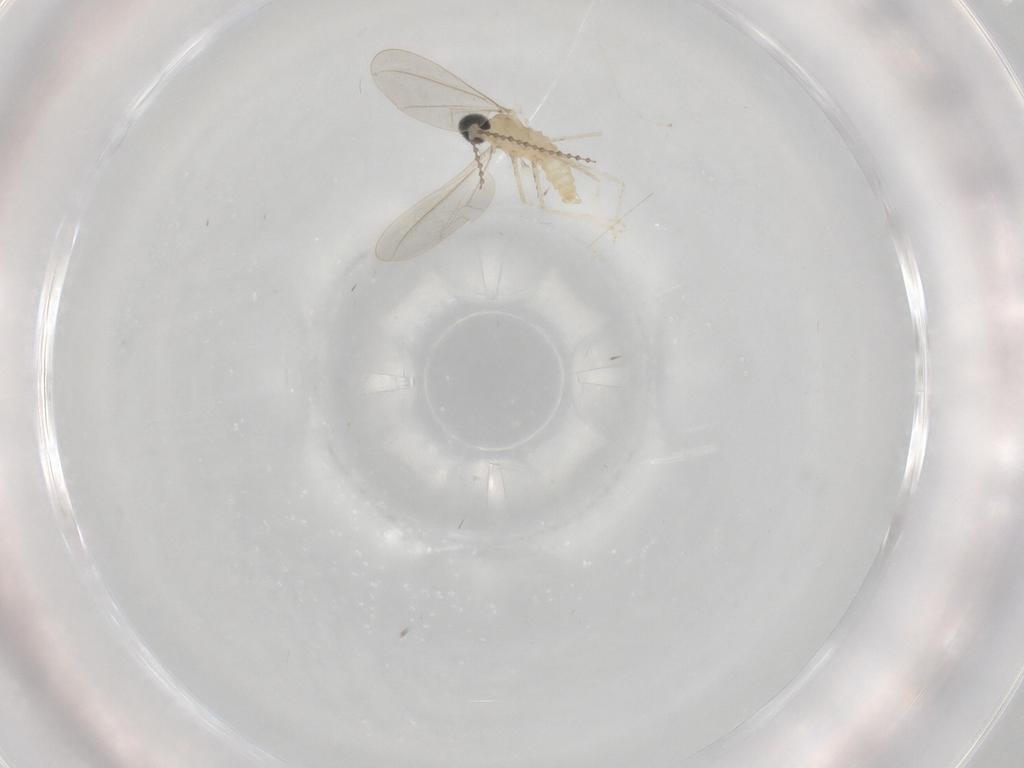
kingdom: Animalia
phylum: Arthropoda
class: Insecta
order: Diptera
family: Cecidomyiidae
